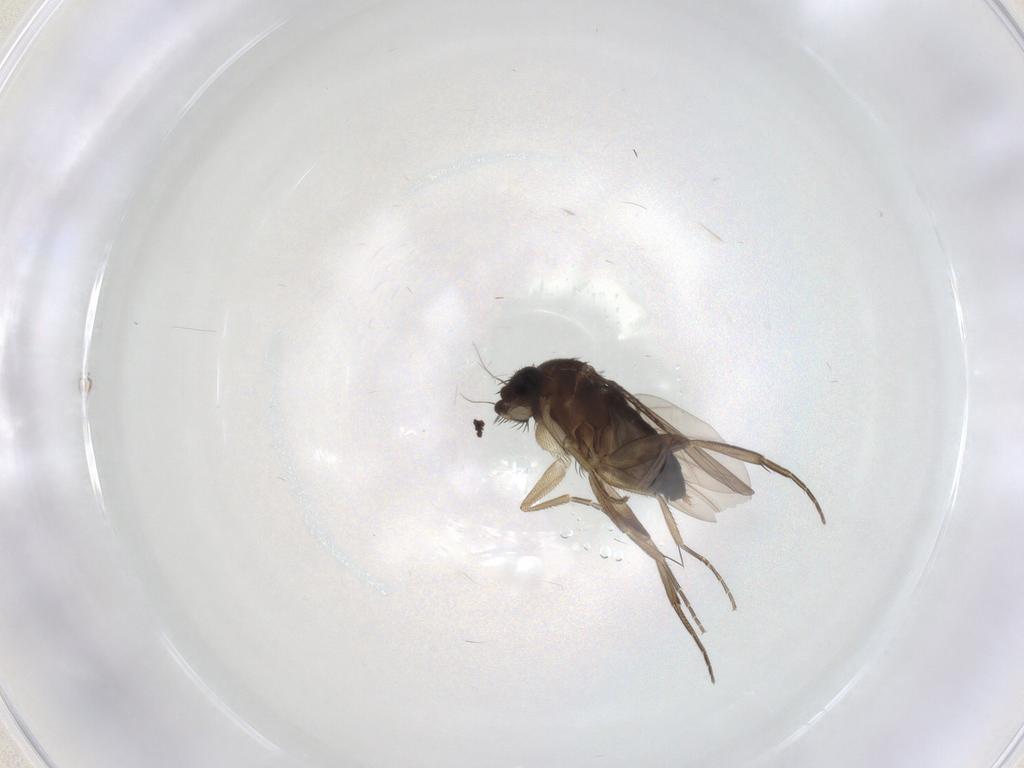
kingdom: Animalia
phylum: Arthropoda
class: Insecta
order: Diptera
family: Phoridae
